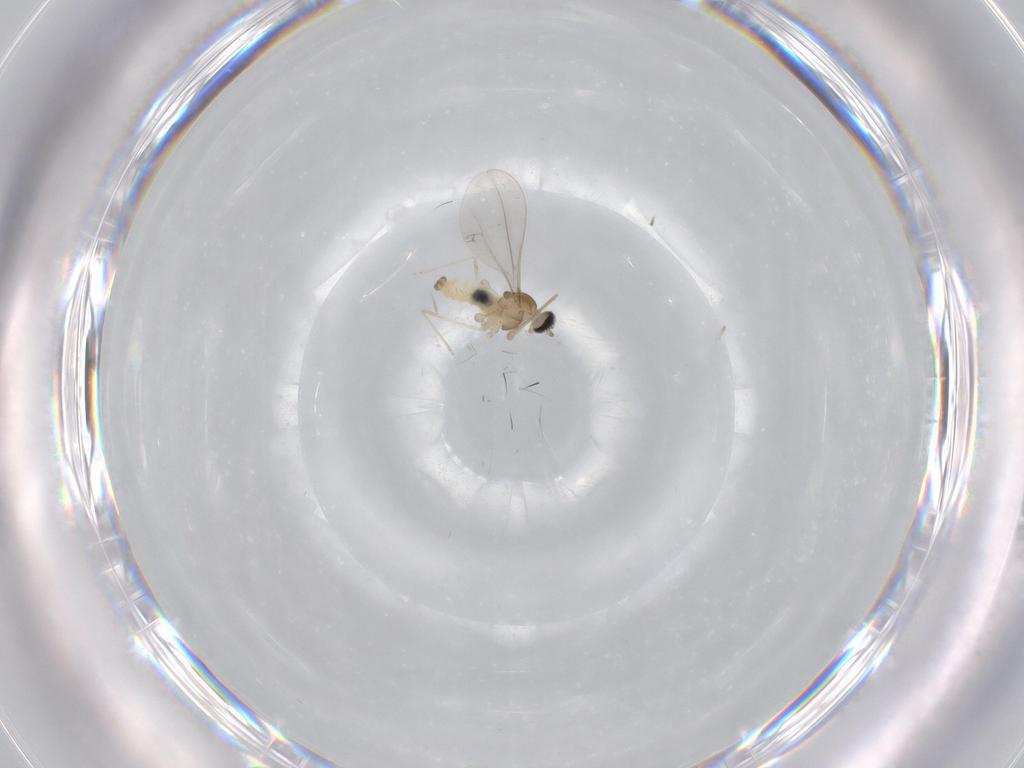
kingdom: Animalia
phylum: Arthropoda
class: Insecta
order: Diptera
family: Cecidomyiidae
